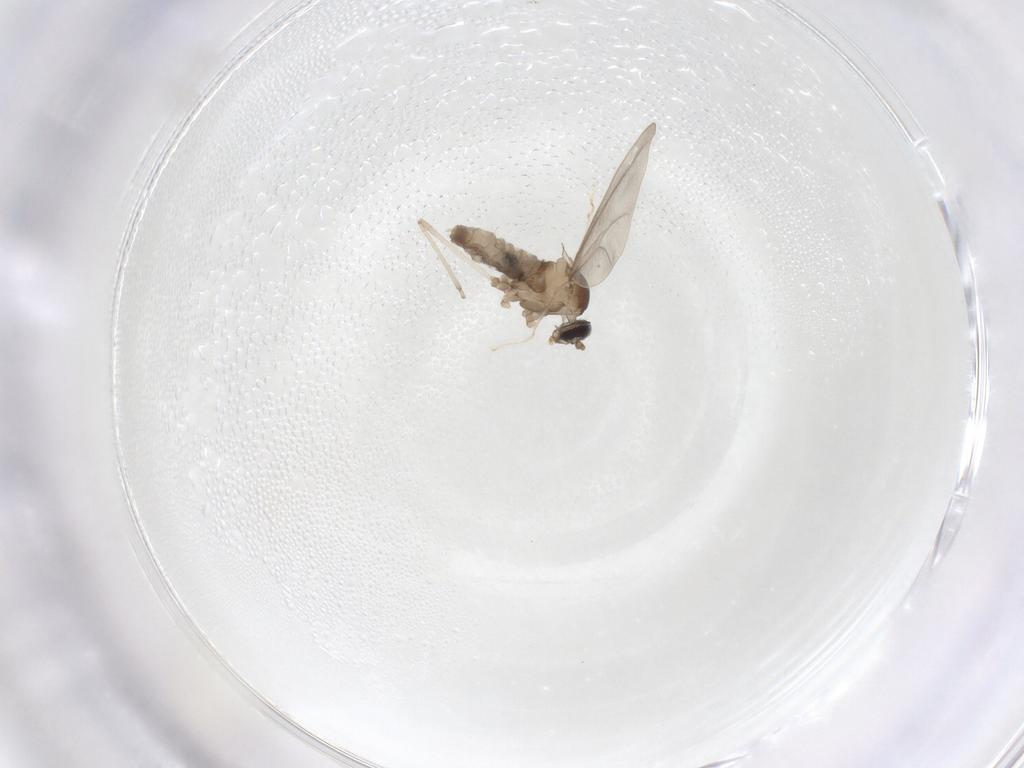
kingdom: Animalia
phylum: Arthropoda
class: Insecta
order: Diptera
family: Cecidomyiidae
